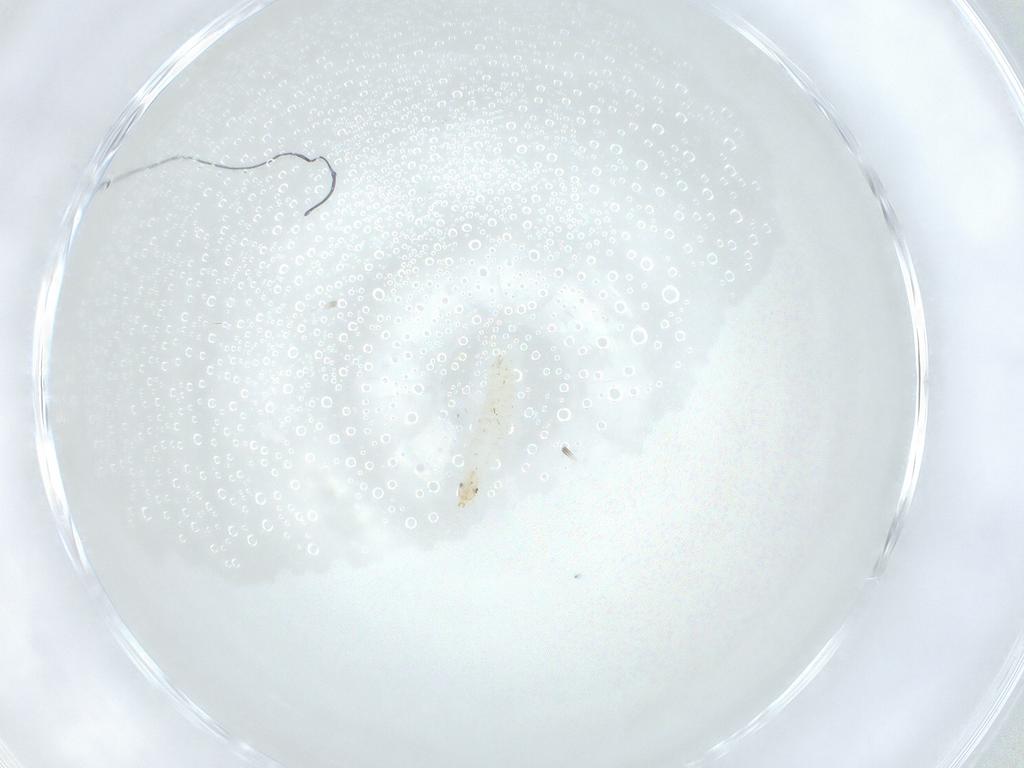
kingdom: Animalia
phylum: Arthropoda
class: Insecta
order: Diptera
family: Stratiomyidae
